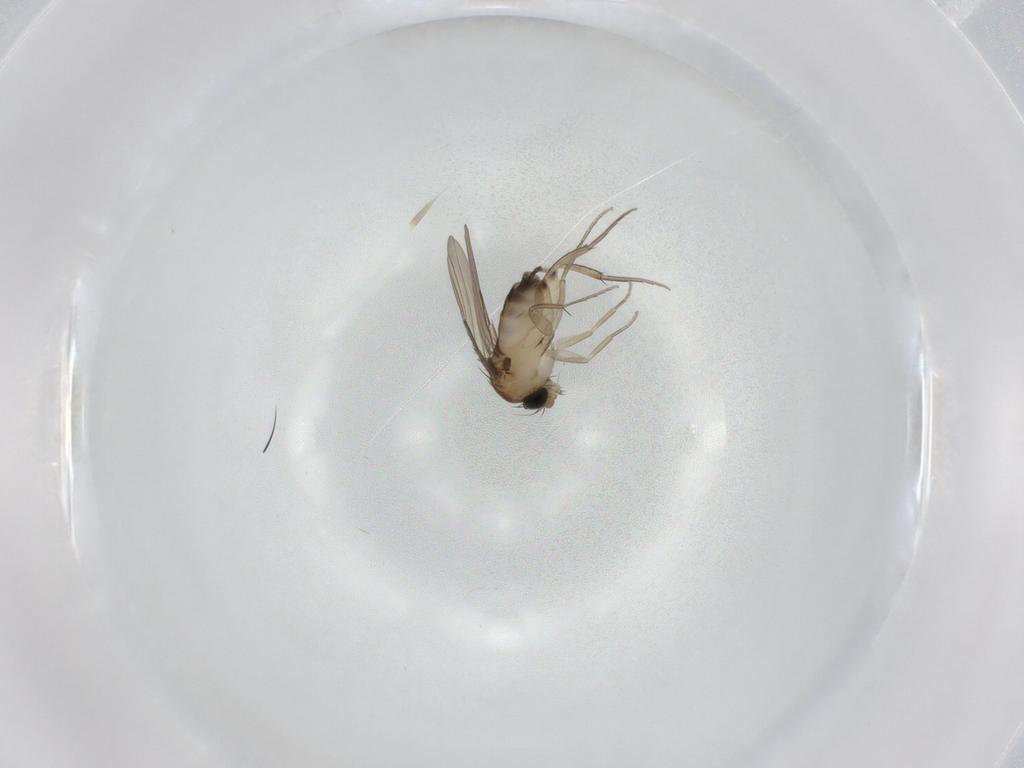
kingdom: Animalia
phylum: Arthropoda
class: Insecta
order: Diptera
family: Phoridae
